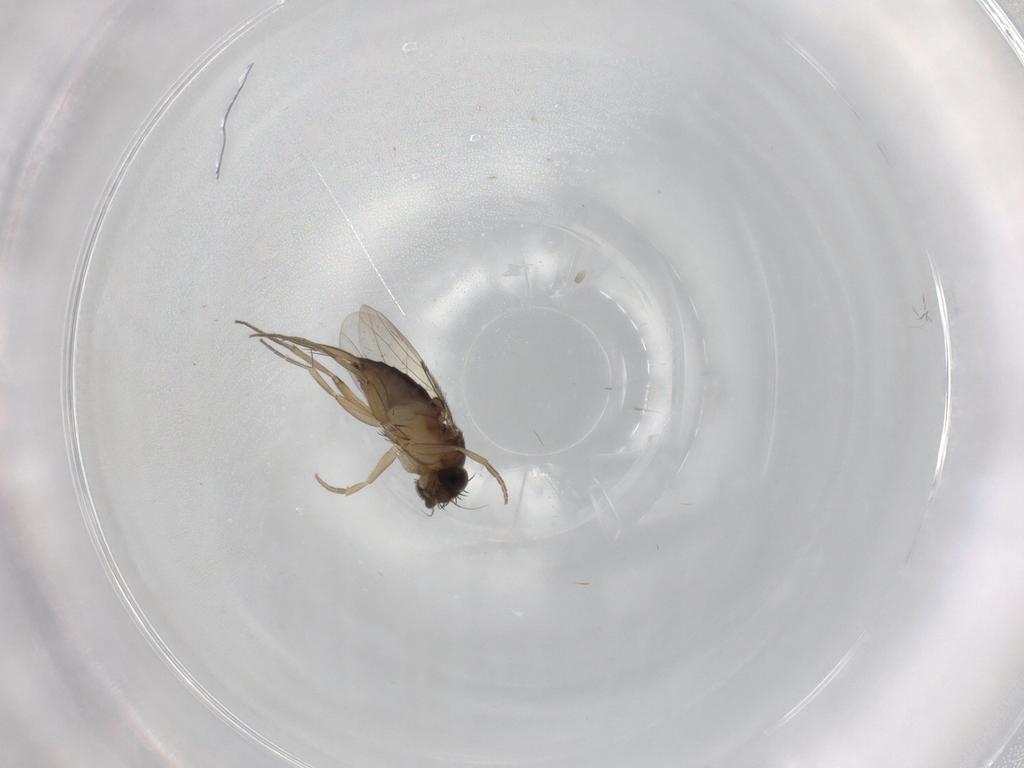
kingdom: Animalia
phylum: Arthropoda
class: Insecta
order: Diptera
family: Phoridae
